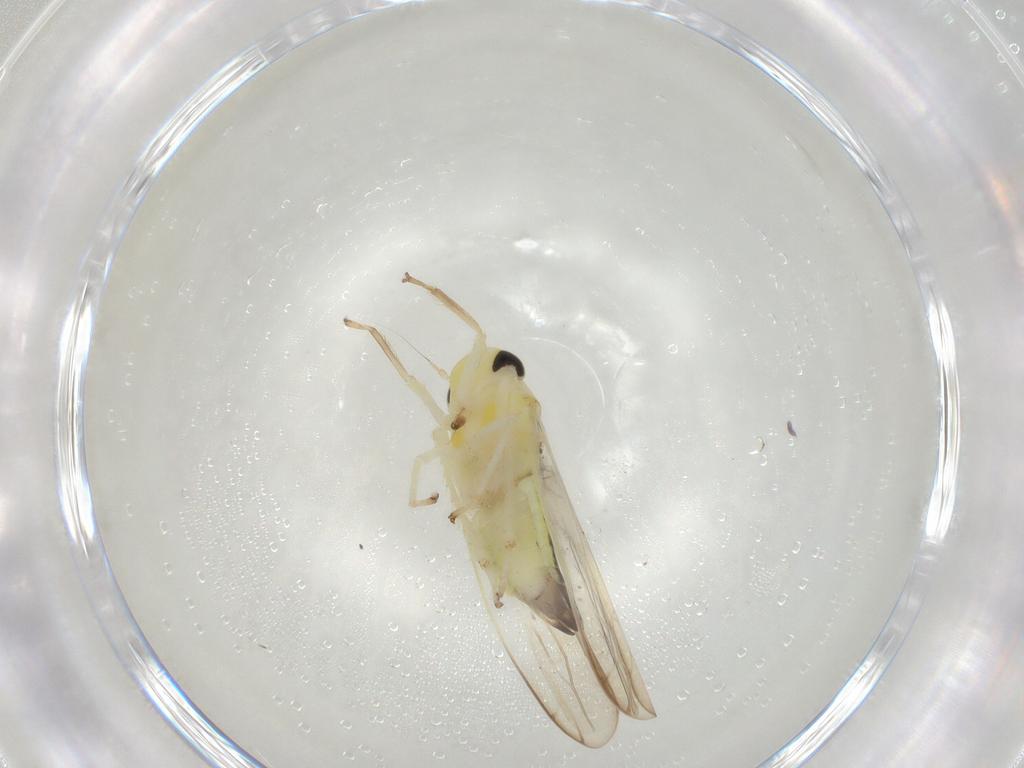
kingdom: Animalia
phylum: Arthropoda
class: Insecta
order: Hemiptera
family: Cicadellidae
